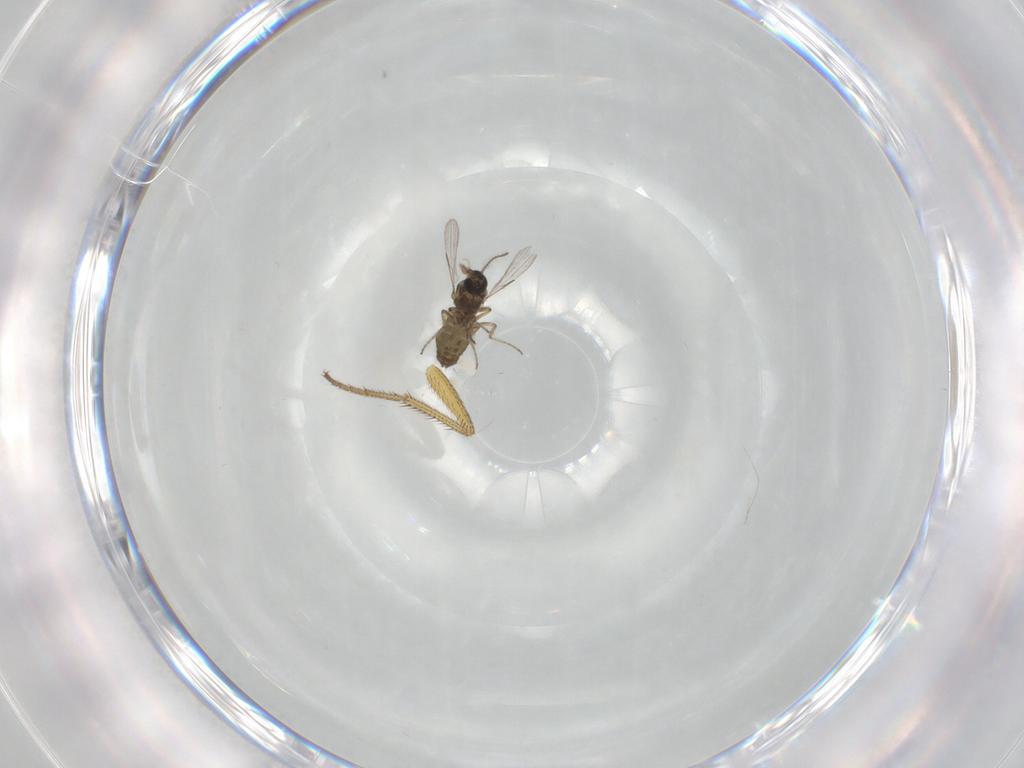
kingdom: Animalia
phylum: Arthropoda
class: Insecta
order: Diptera
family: Ceratopogonidae
